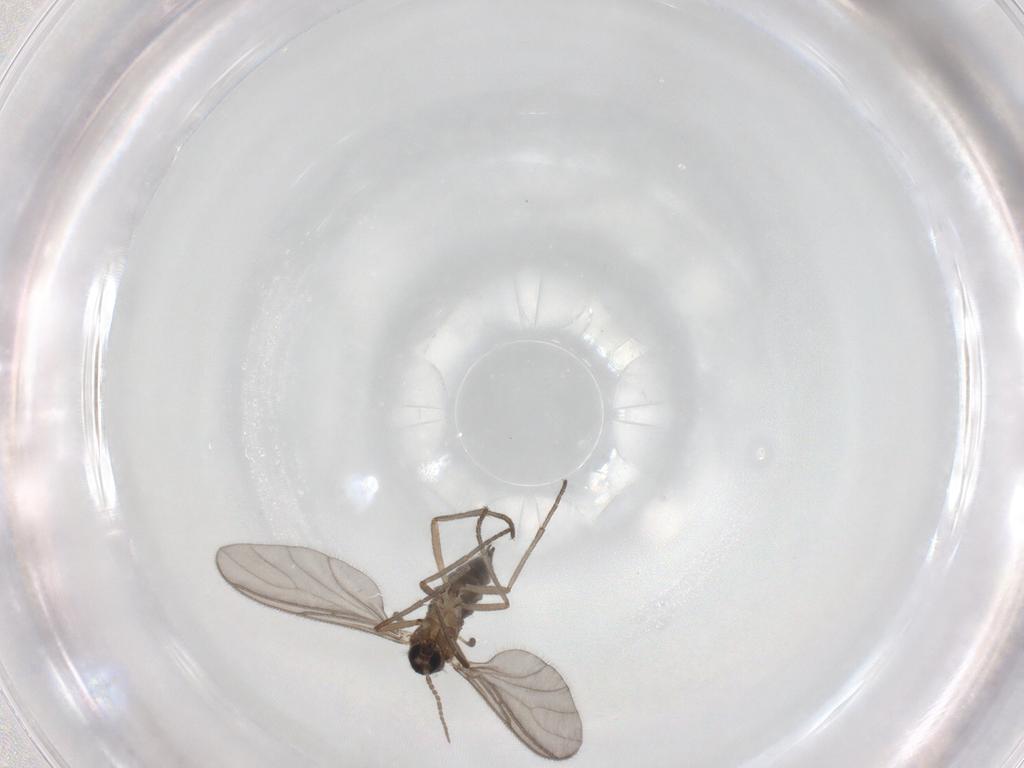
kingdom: Animalia
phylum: Arthropoda
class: Insecta
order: Diptera
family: Sciaridae
